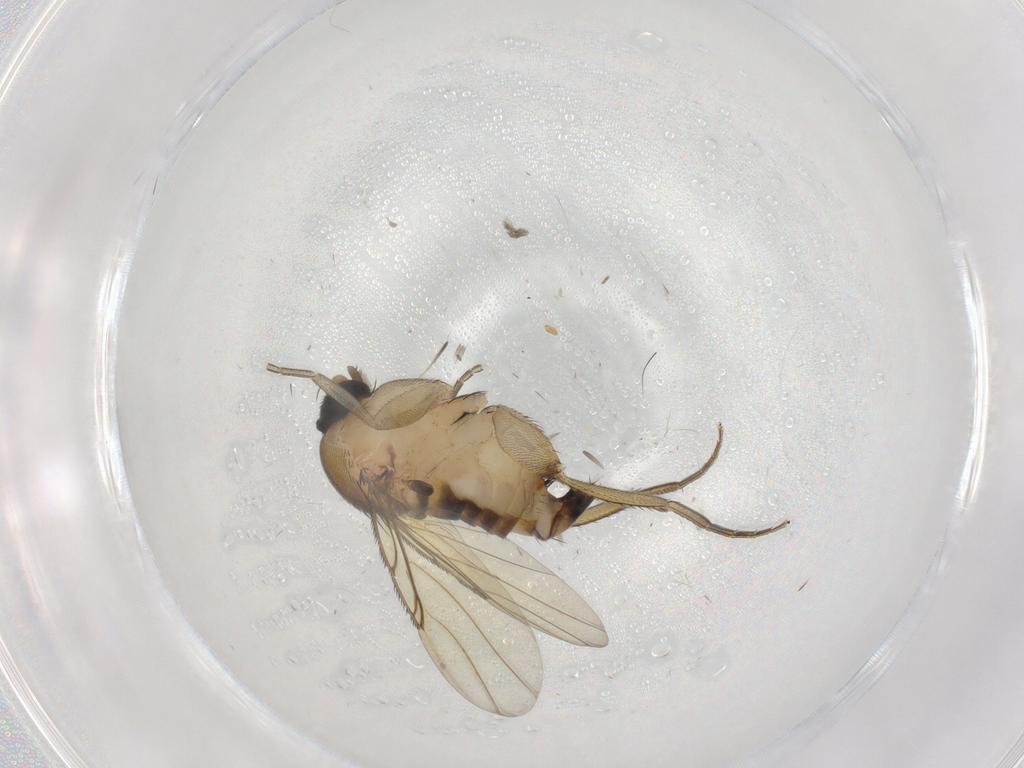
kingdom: Animalia
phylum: Arthropoda
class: Insecta
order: Diptera
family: Phoridae
